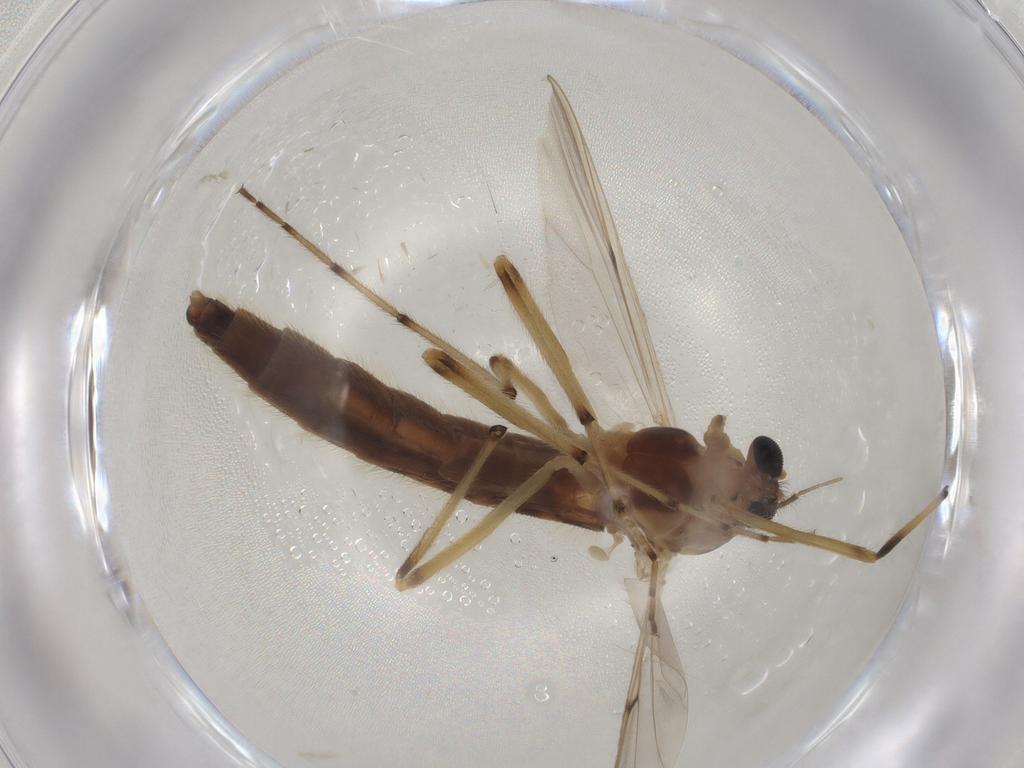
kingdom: Animalia
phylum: Arthropoda
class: Insecta
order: Diptera
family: Chironomidae
